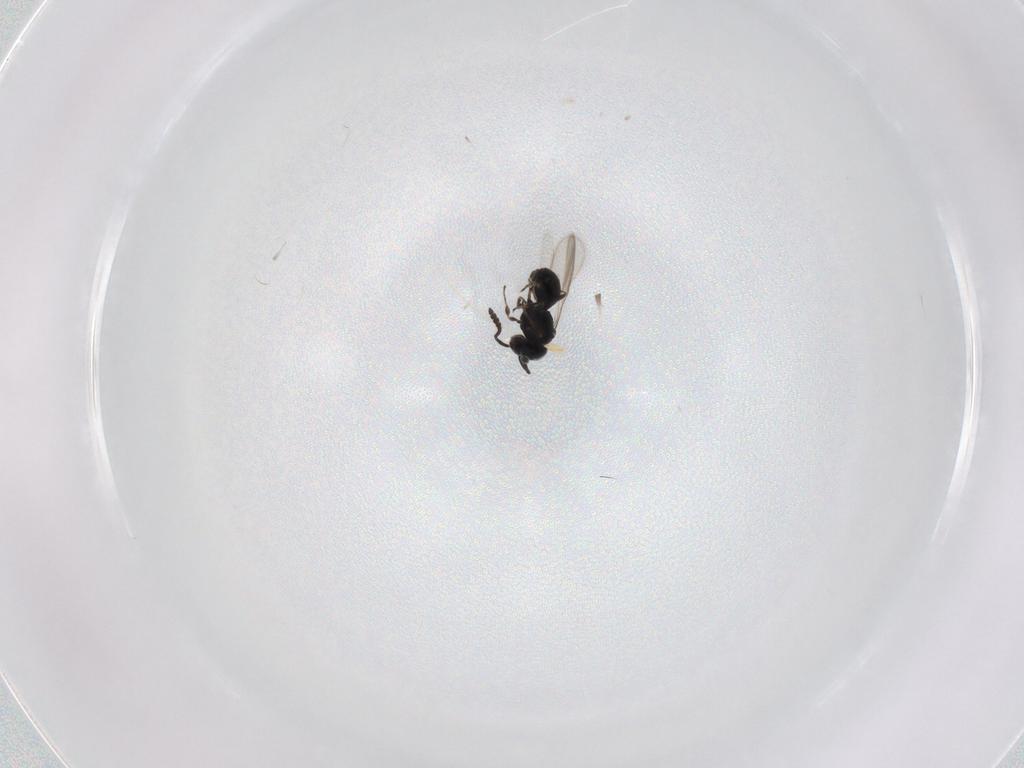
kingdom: Animalia
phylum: Arthropoda
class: Insecta
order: Hymenoptera
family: Scelionidae
